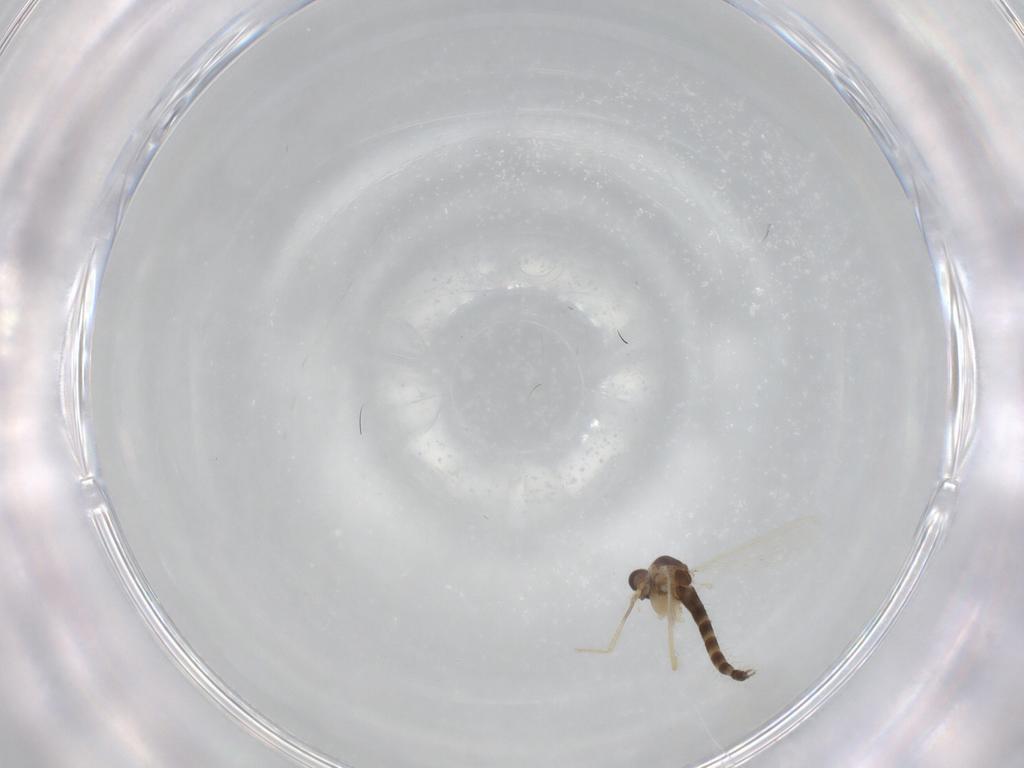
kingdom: Animalia
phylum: Arthropoda
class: Insecta
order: Diptera
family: Chironomidae
